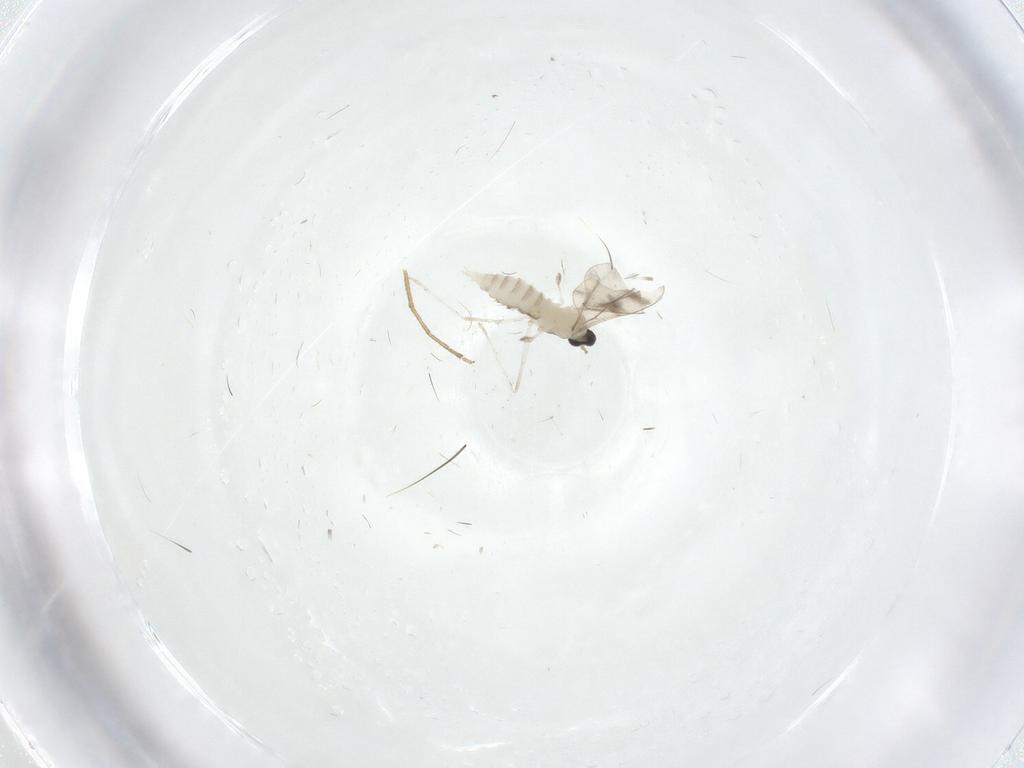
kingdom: Animalia
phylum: Arthropoda
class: Insecta
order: Diptera
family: Cecidomyiidae
